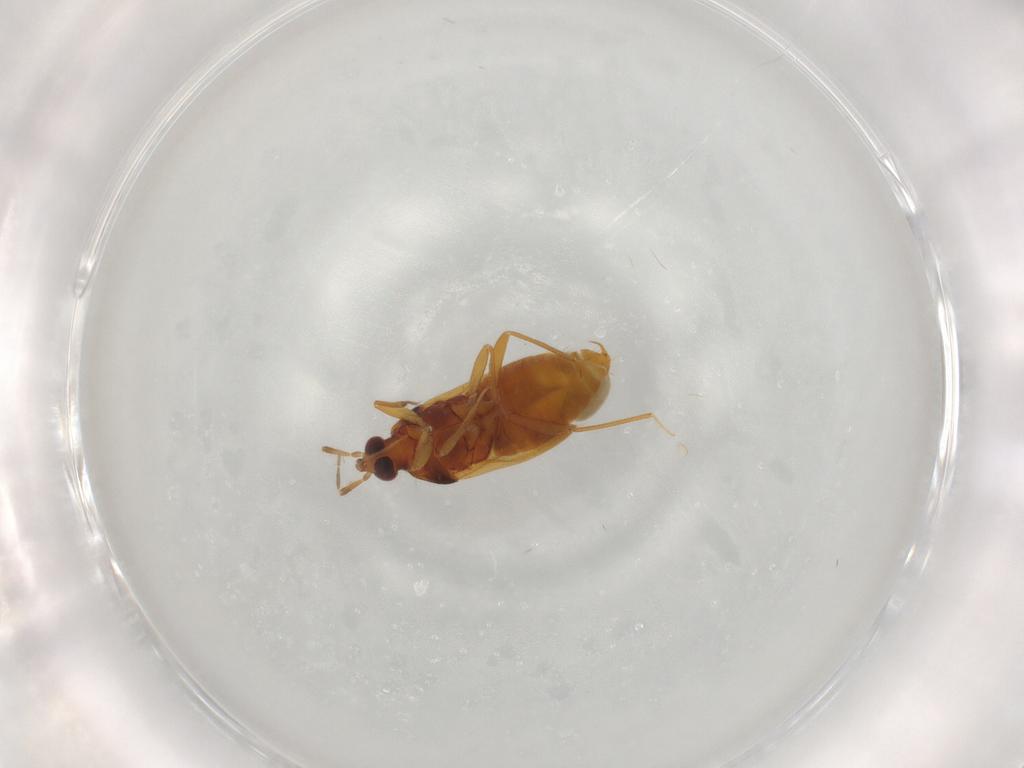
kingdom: Animalia
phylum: Arthropoda
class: Insecta
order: Hemiptera
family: Anthocoridae
